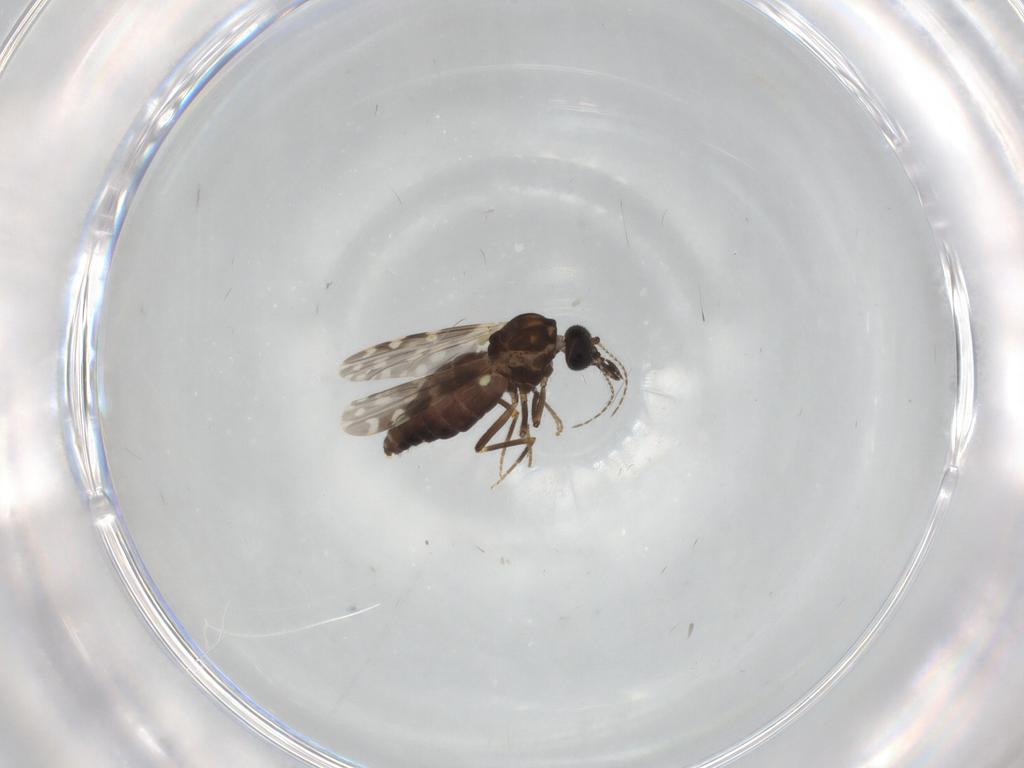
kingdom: Animalia
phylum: Arthropoda
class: Insecta
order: Diptera
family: Ceratopogonidae
